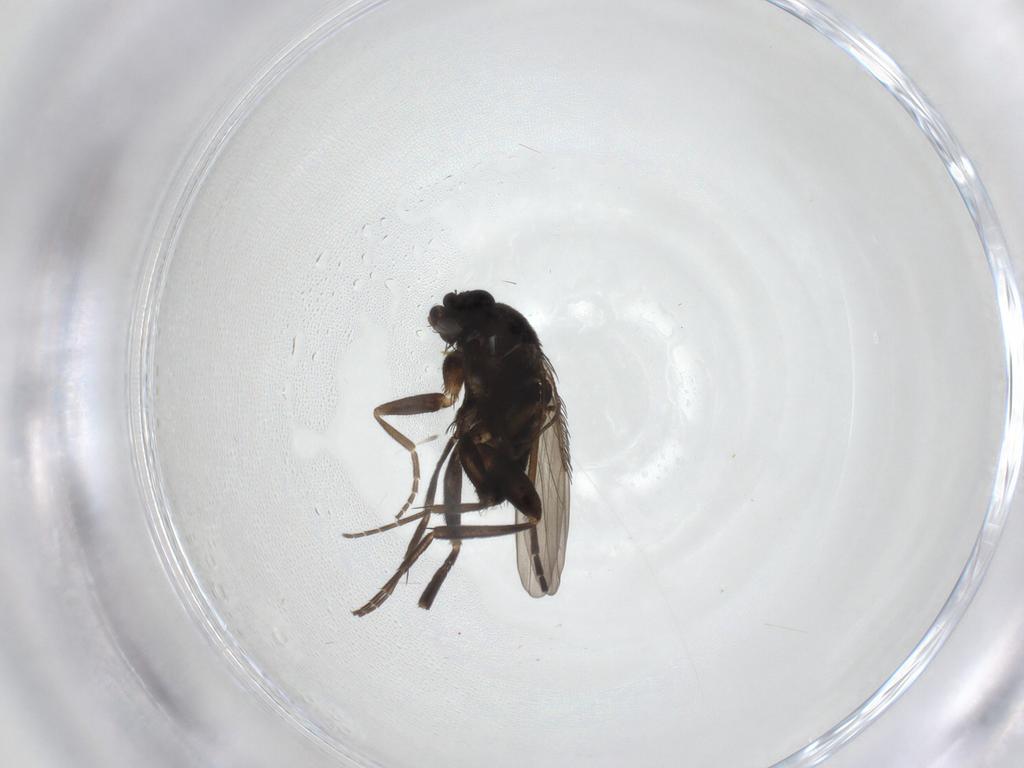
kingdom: Animalia
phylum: Arthropoda
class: Insecta
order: Diptera
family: Phoridae
